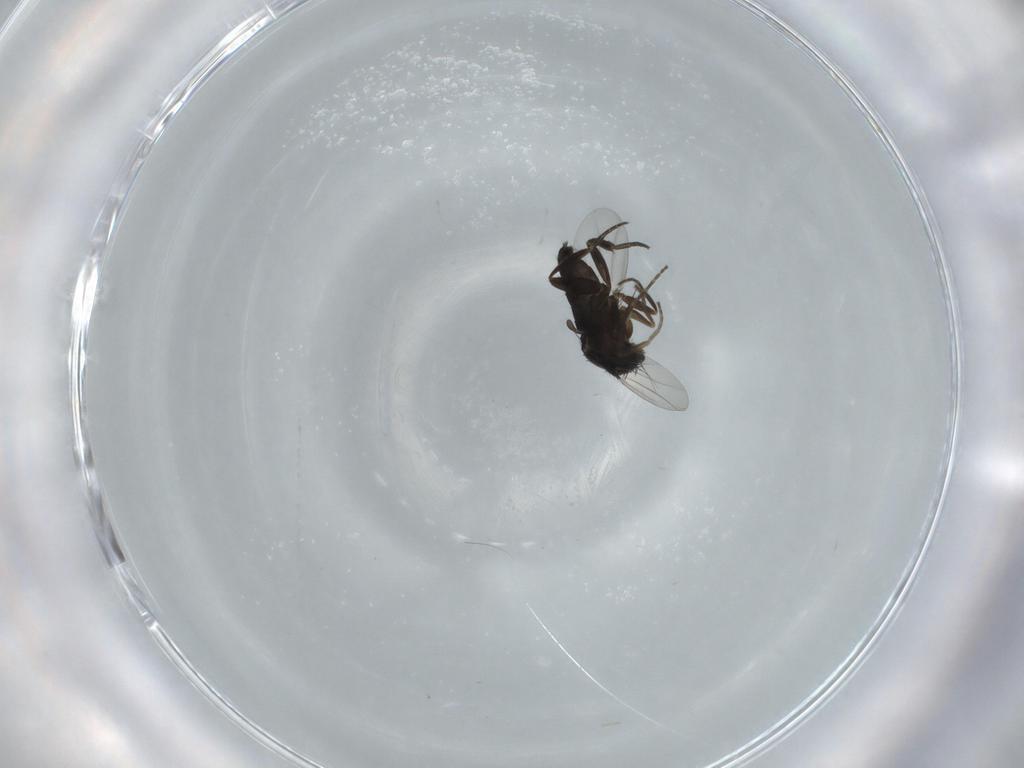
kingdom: Animalia
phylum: Arthropoda
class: Insecta
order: Diptera
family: Phoridae
